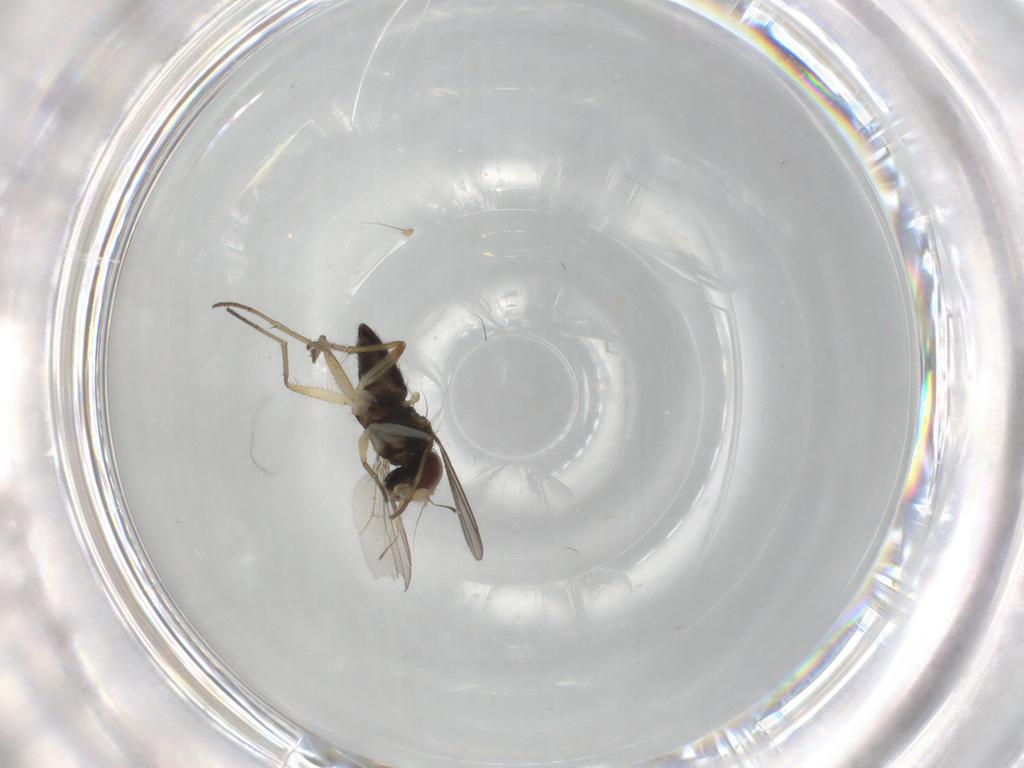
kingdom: Animalia
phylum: Arthropoda
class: Insecta
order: Diptera
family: Dolichopodidae
